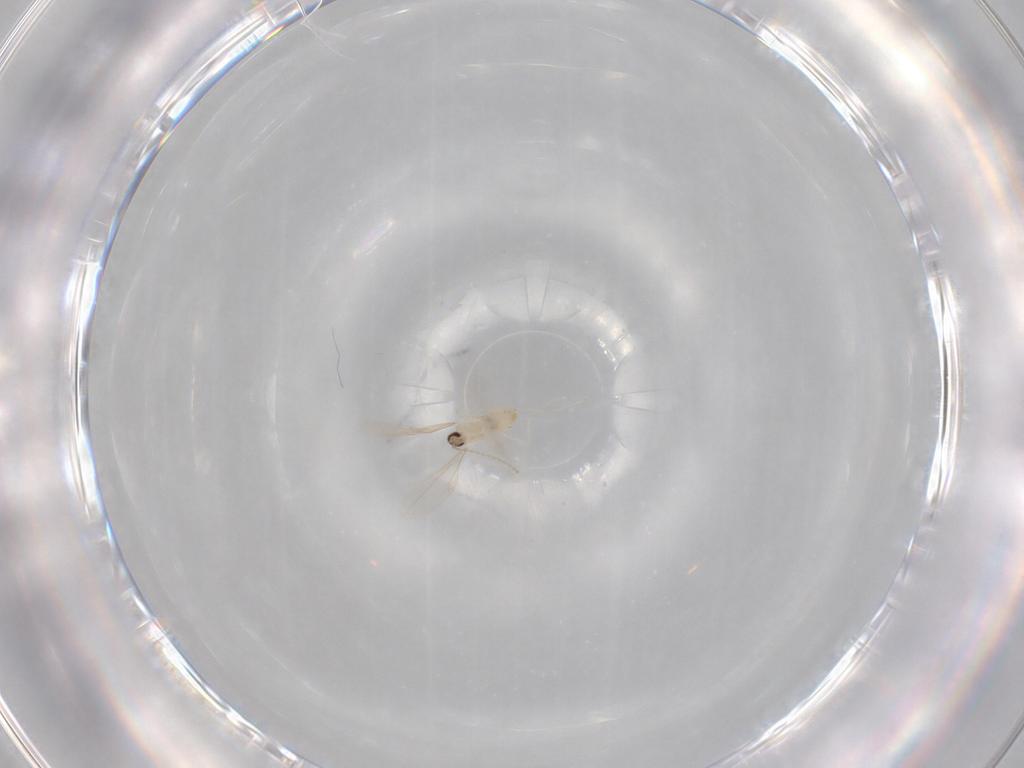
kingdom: Animalia
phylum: Arthropoda
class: Insecta
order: Diptera
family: Cecidomyiidae
